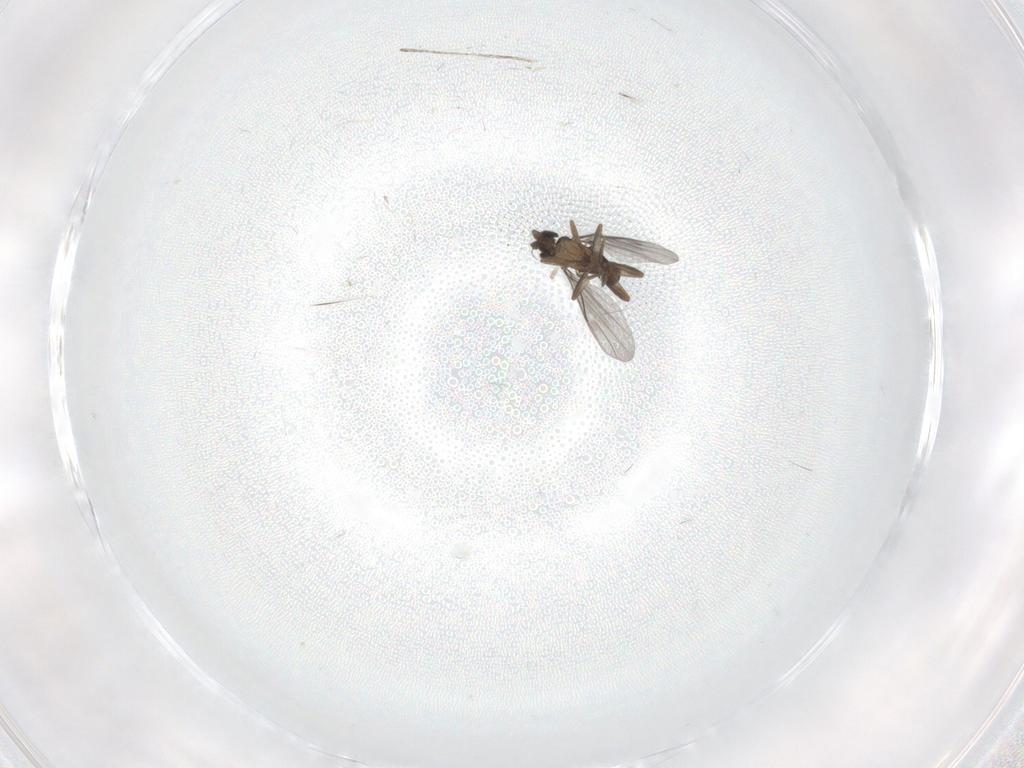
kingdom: Animalia
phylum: Arthropoda
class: Insecta
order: Diptera
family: Cecidomyiidae
